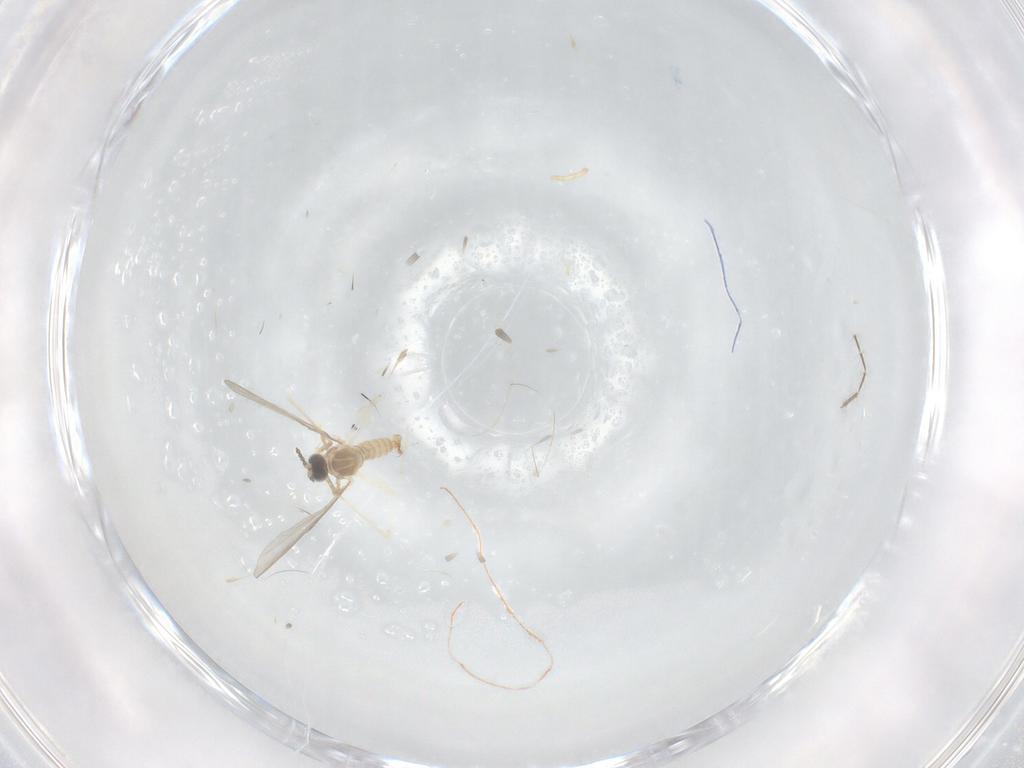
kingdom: Animalia
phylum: Arthropoda
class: Insecta
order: Diptera
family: Cecidomyiidae
